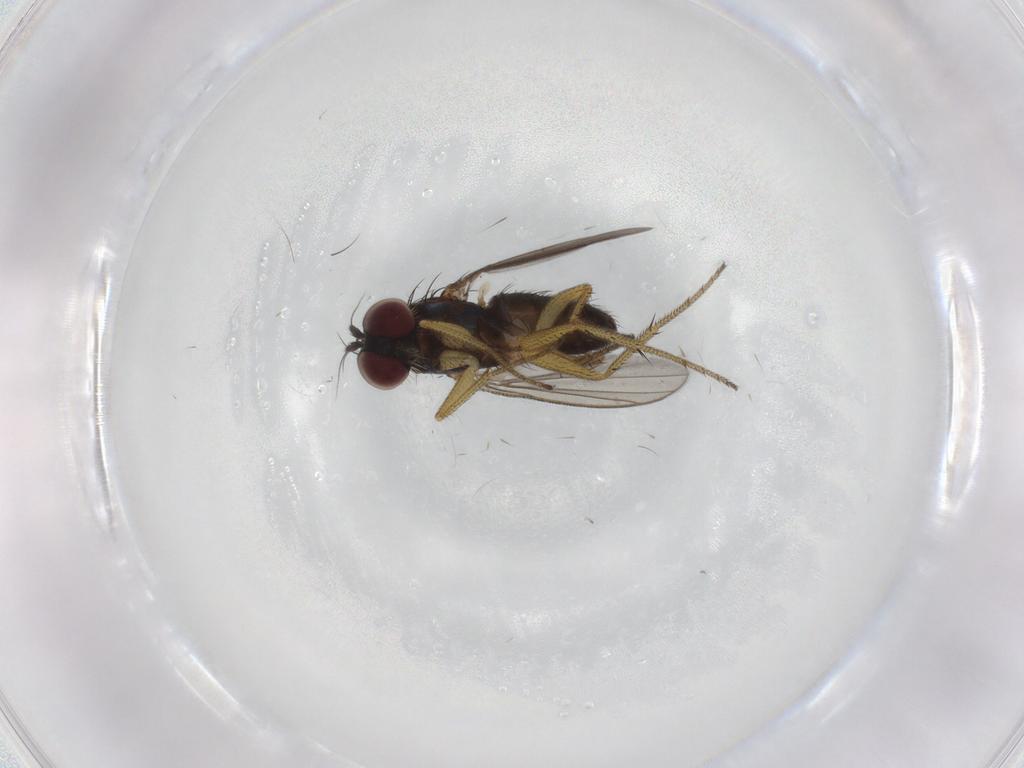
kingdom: Animalia
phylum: Arthropoda
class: Insecta
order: Diptera
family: Dolichopodidae
